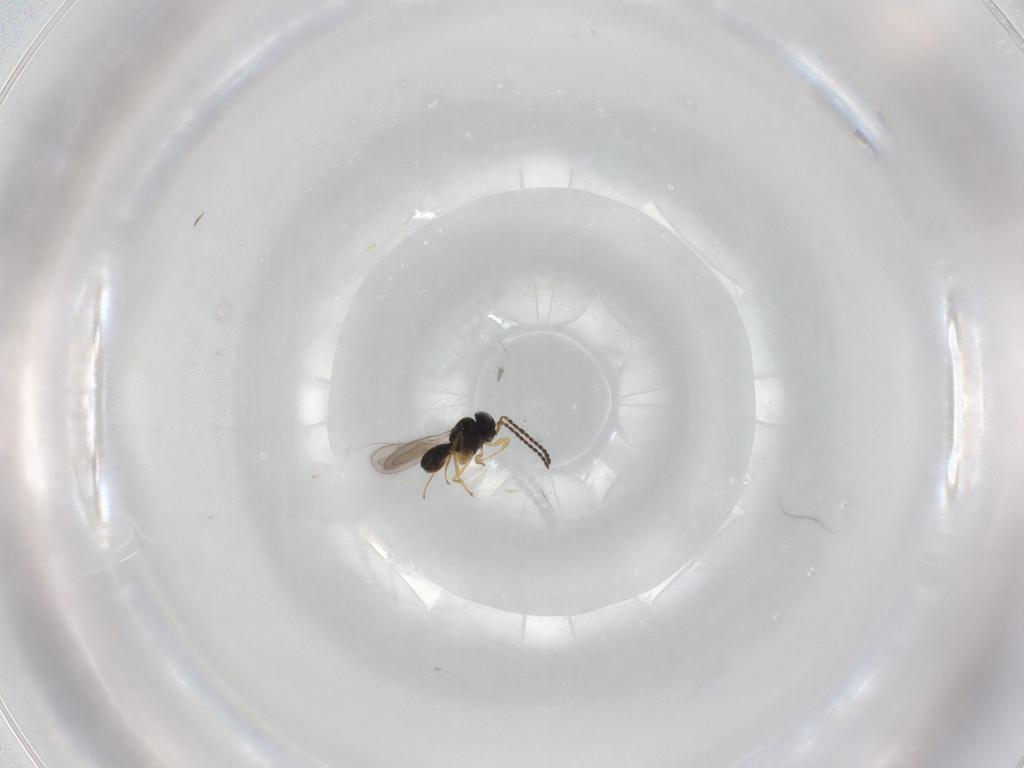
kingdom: Animalia
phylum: Arthropoda
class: Insecta
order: Hymenoptera
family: Scelionidae
